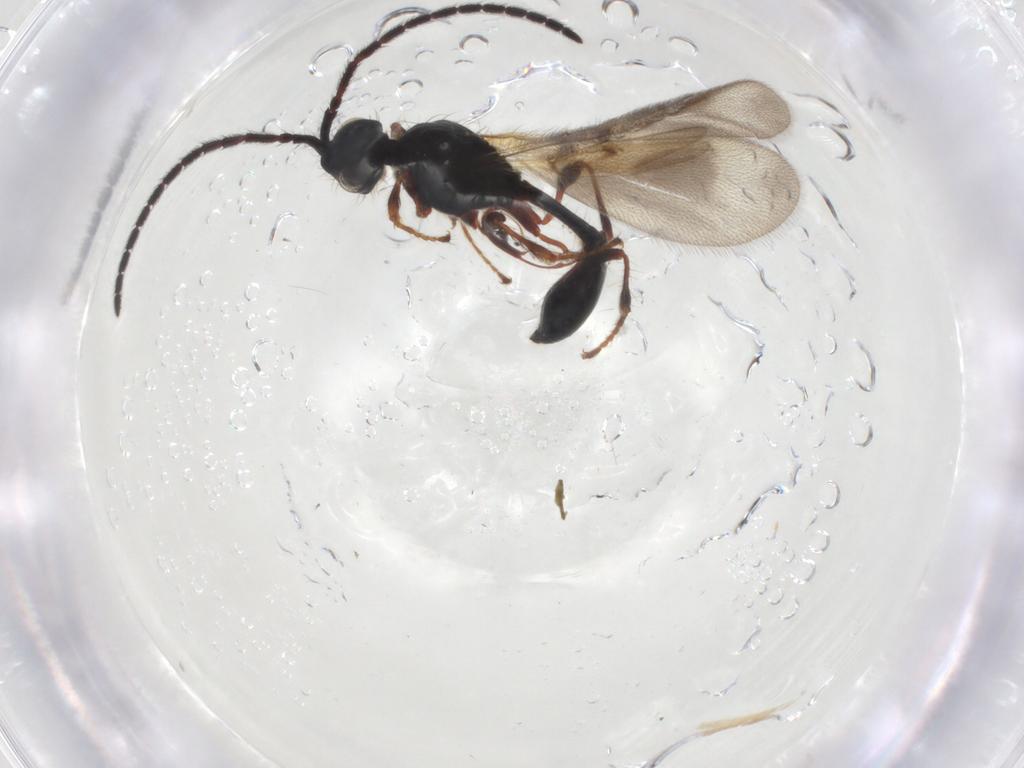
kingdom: Animalia
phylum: Arthropoda
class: Insecta
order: Hymenoptera
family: Diapriidae
